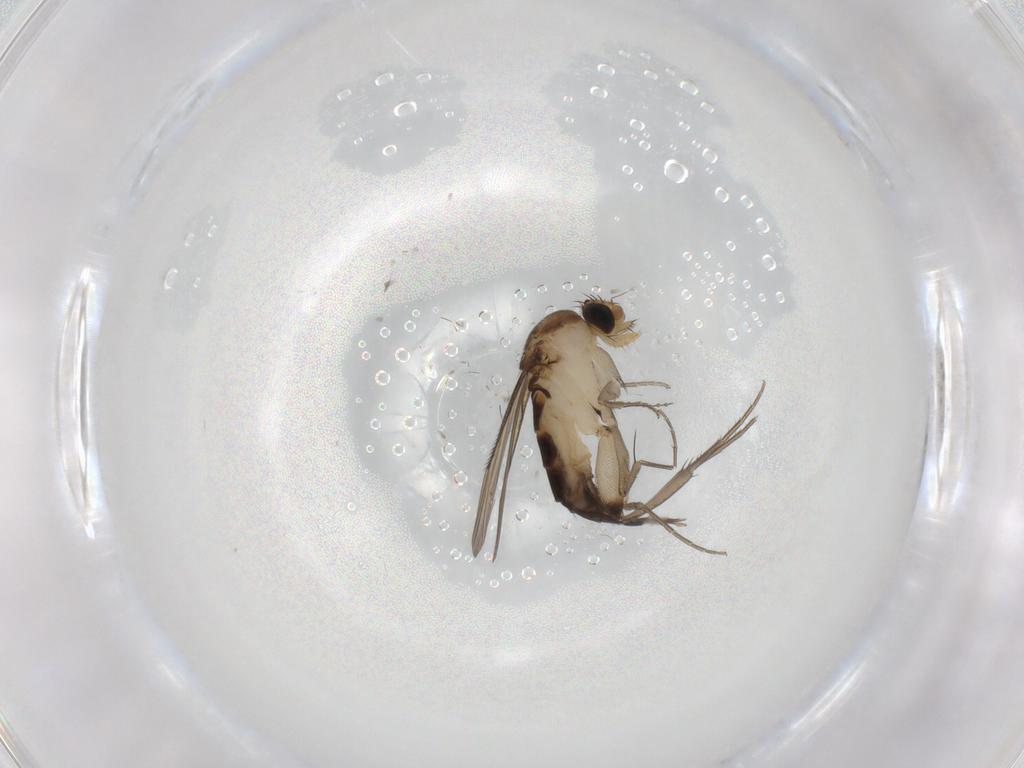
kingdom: Animalia
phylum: Arthropoda
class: Insecta
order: Diptera
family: Phoridae
